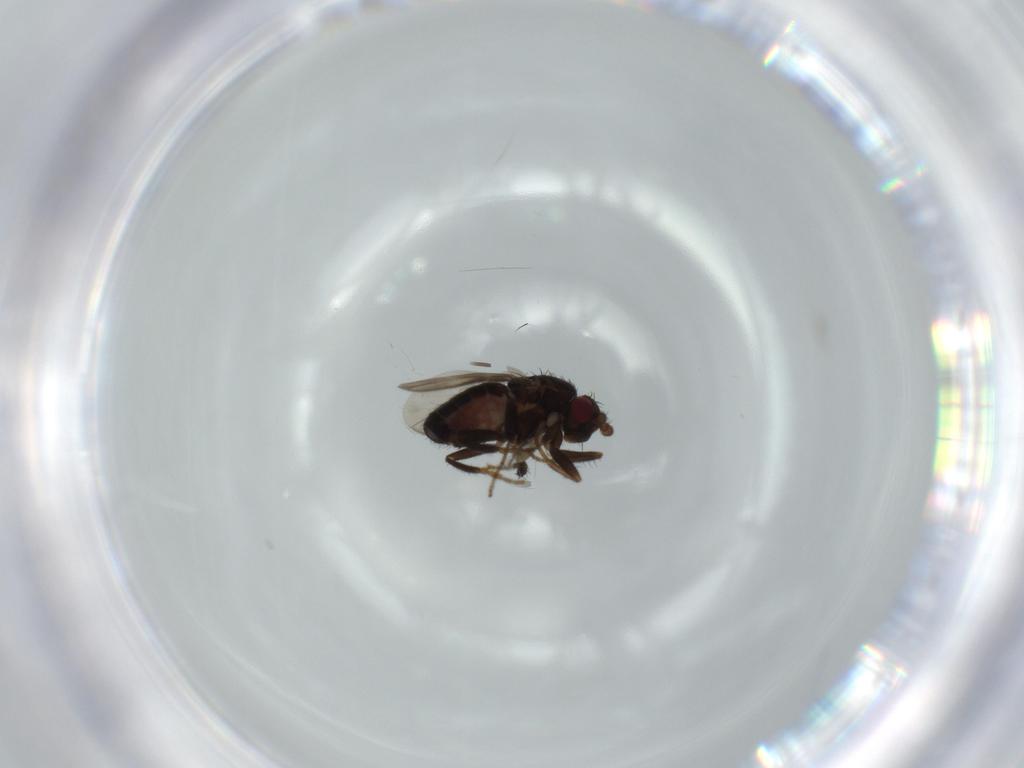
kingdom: Animalia
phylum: Arthropoda
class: Insecta
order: Diptera
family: Sphaeroceridae
